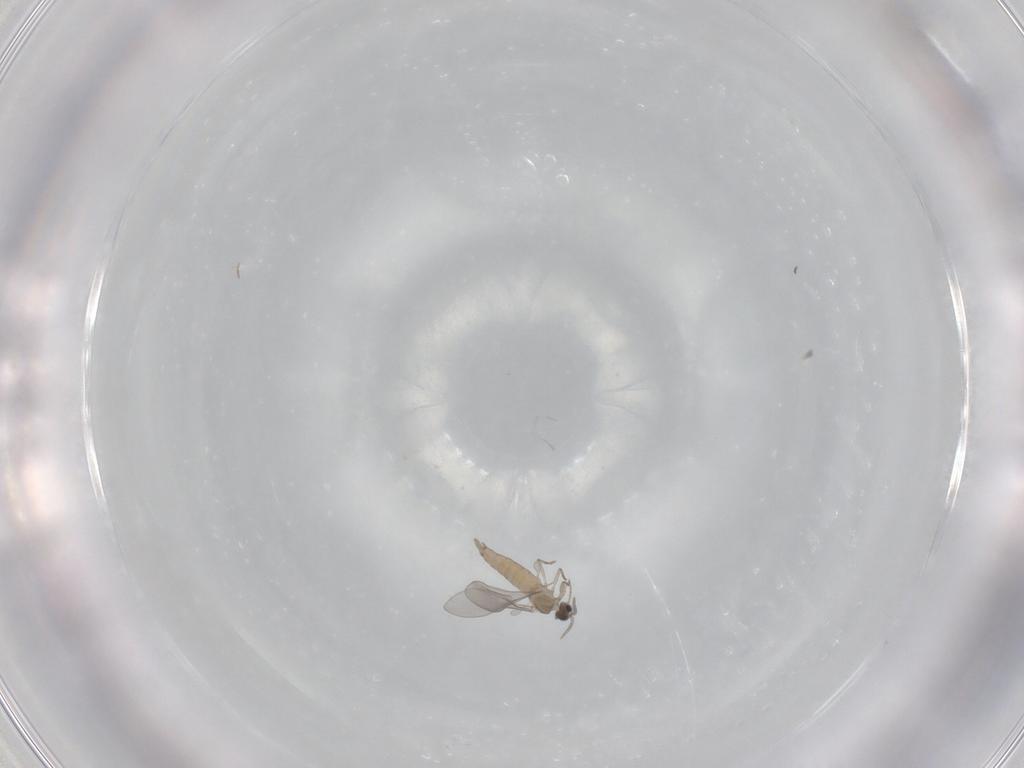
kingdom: Animalia
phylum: Arthropoda
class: Insecta
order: Diptera
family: Cecidomyiidae
